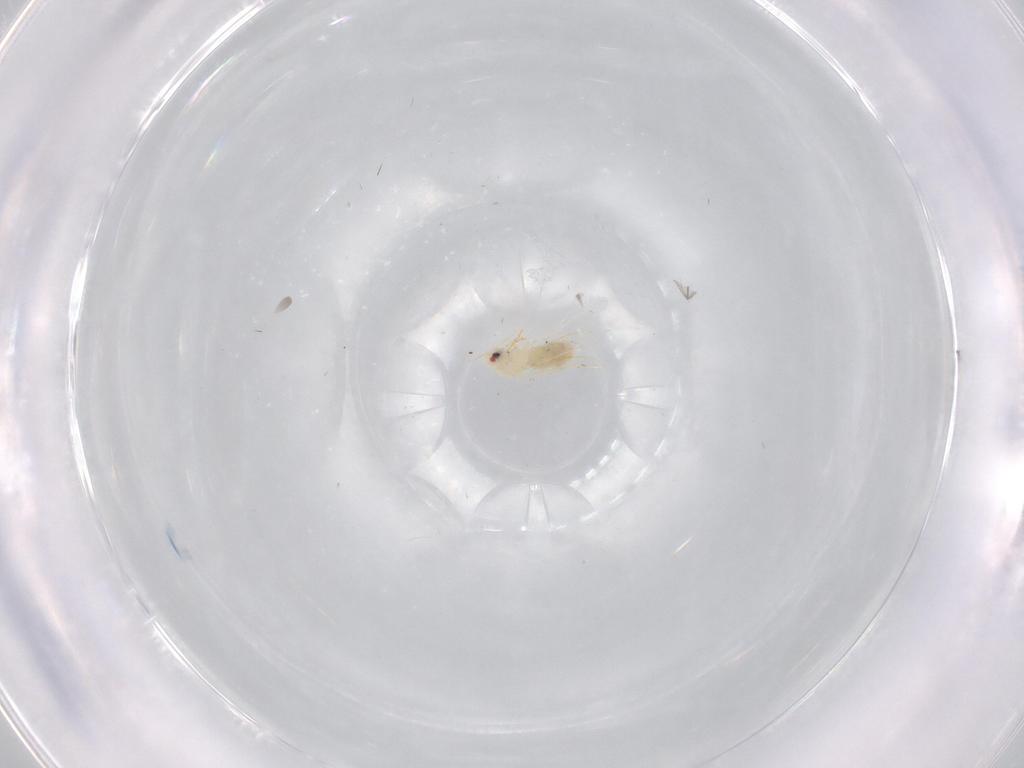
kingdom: Animalia
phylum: Arthropoda
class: Insecta
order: Hemiptera
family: Aleyrodidae
